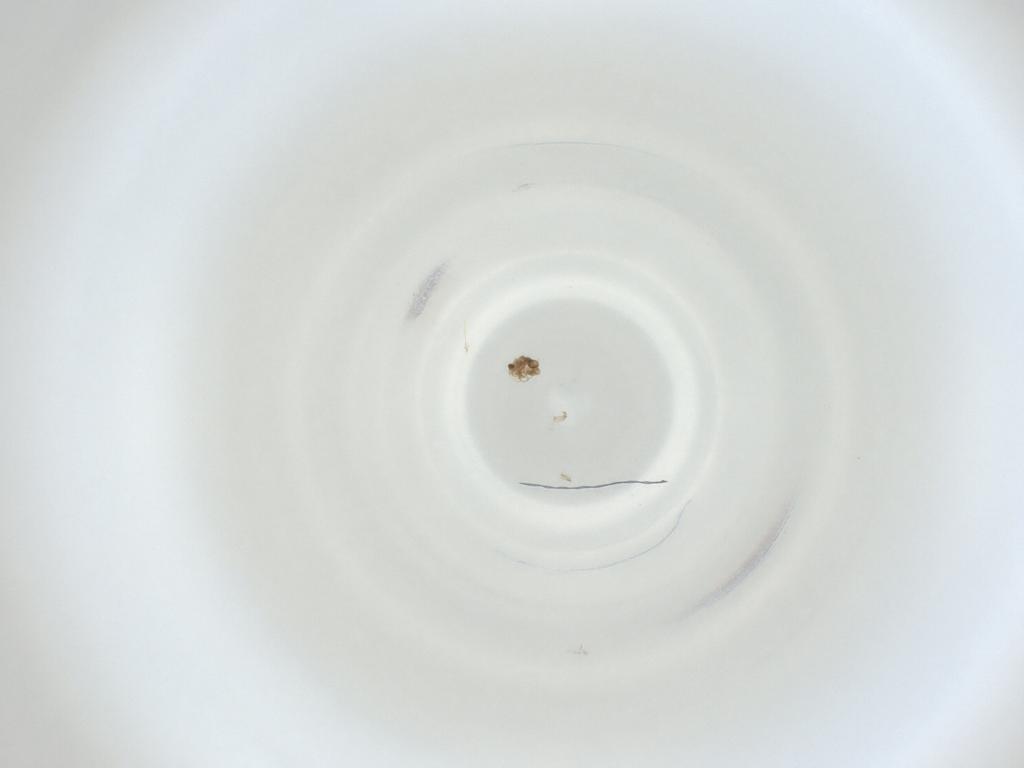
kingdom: Animalia
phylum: Arthropoda
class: Insecta
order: Diptera
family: Cecidomyiidae
